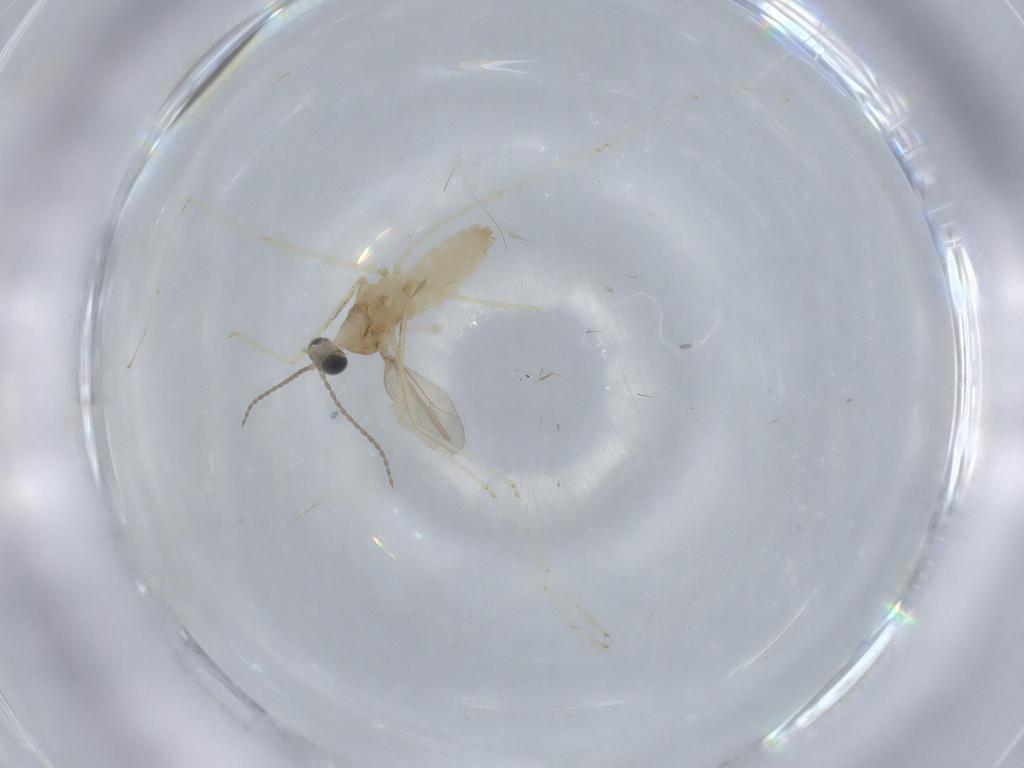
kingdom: Animalia
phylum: Arthropoda
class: Insecta
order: Diptera
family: Cecidomyiidae
